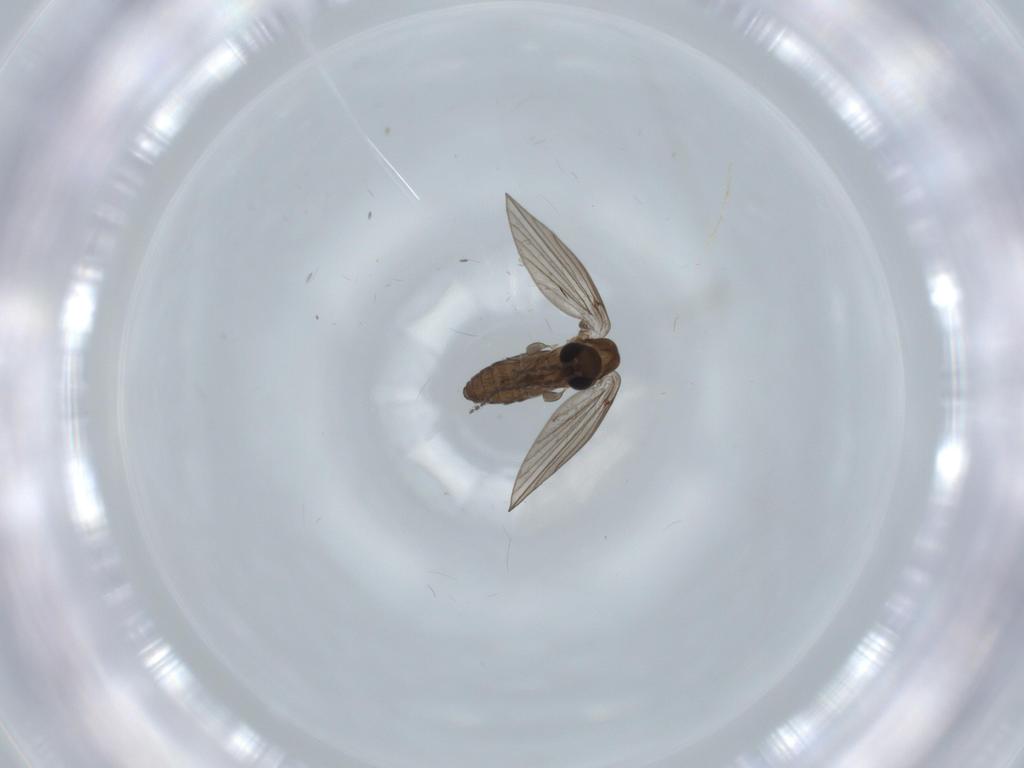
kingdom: Animalia
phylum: Arthropoda
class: Insecta
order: Diptera
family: Psychodidae
